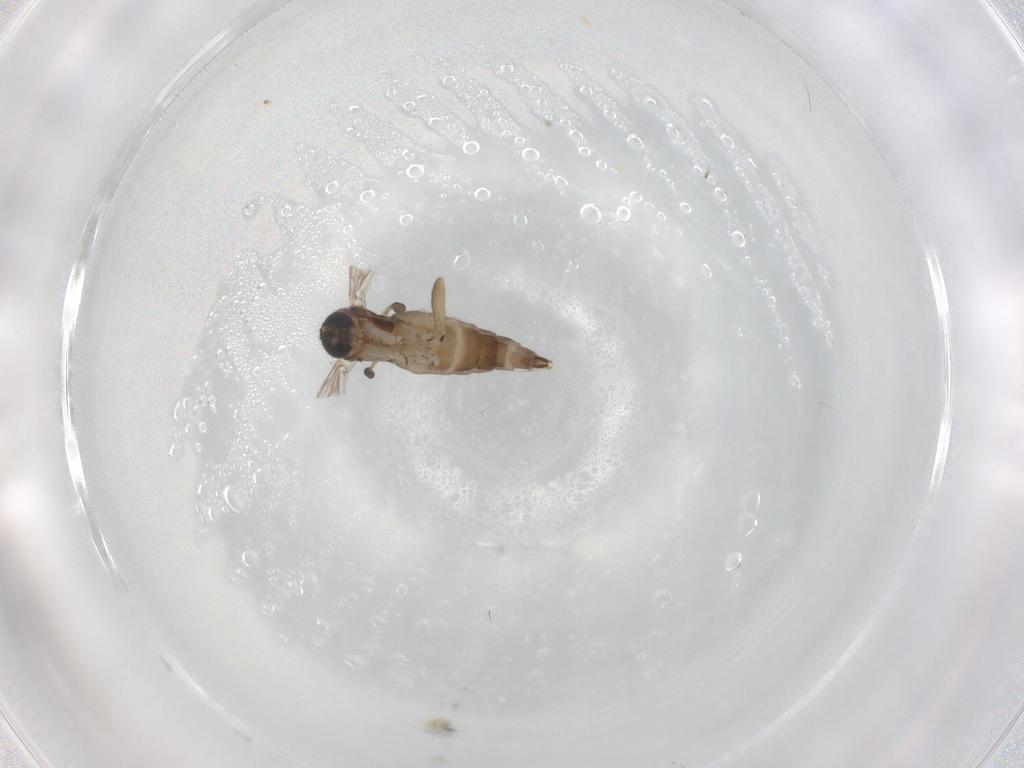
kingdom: Animalia
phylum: Arthropoda
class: Insecta
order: Diptera
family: Sciaridae
